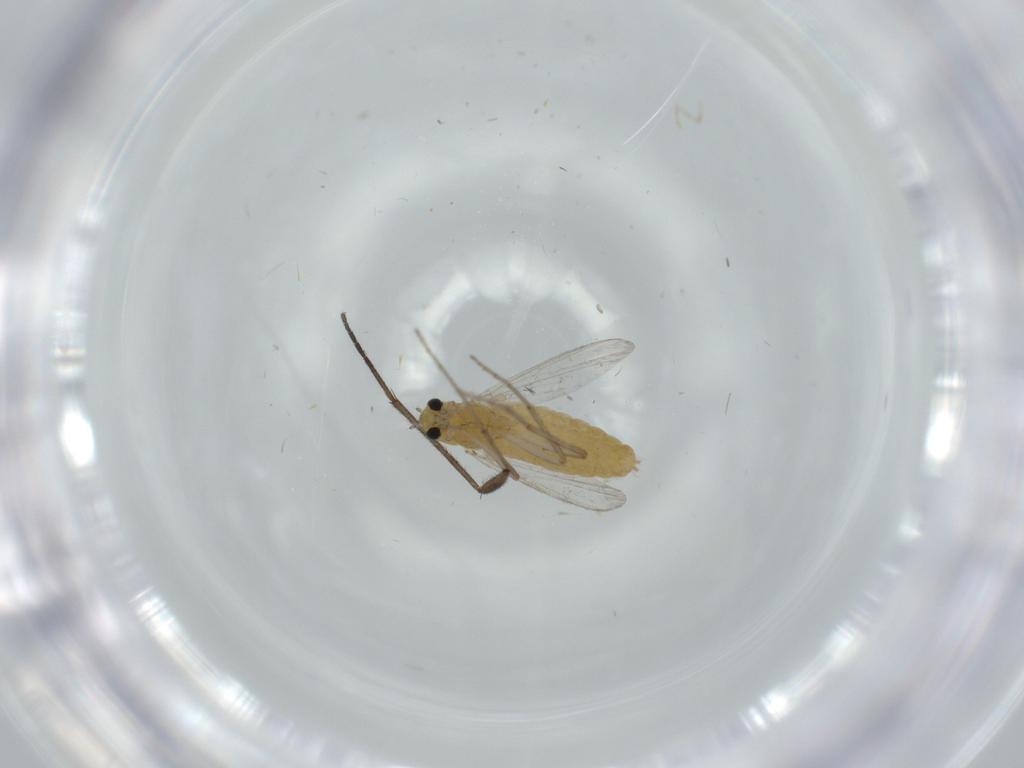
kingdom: Animalia
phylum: Arthropoda
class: Insecta
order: Diptera
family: Chironomidae
